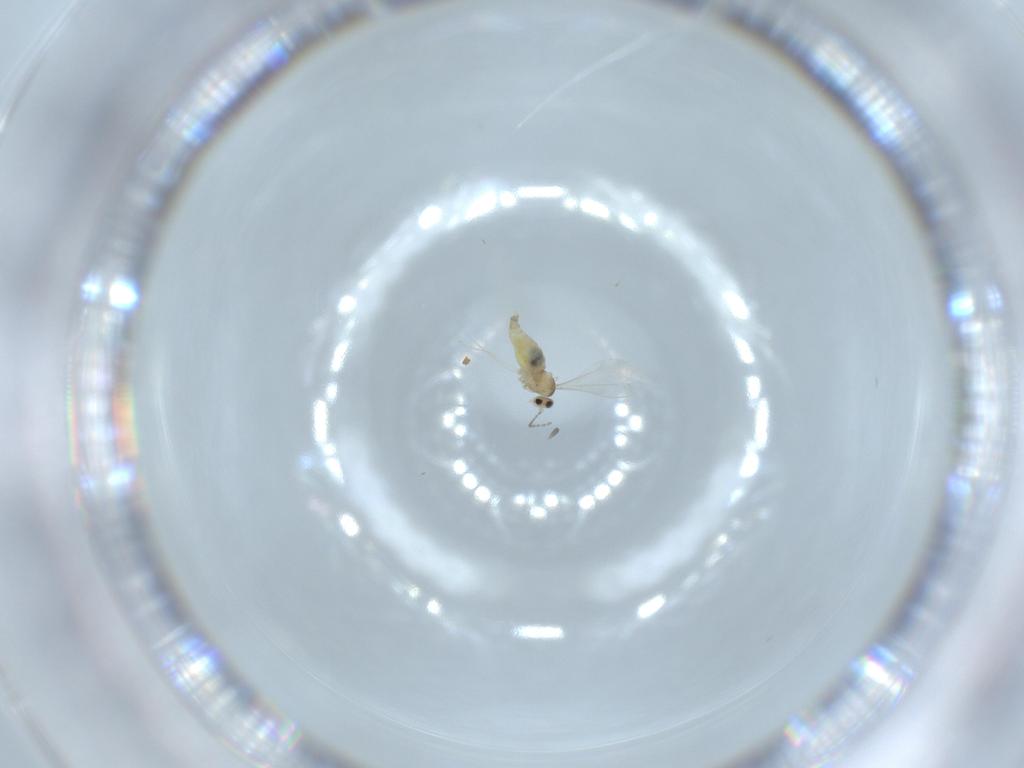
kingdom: Animalia
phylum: Arthropoda
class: Insecta
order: Diptera
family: Cecidomyiidae
